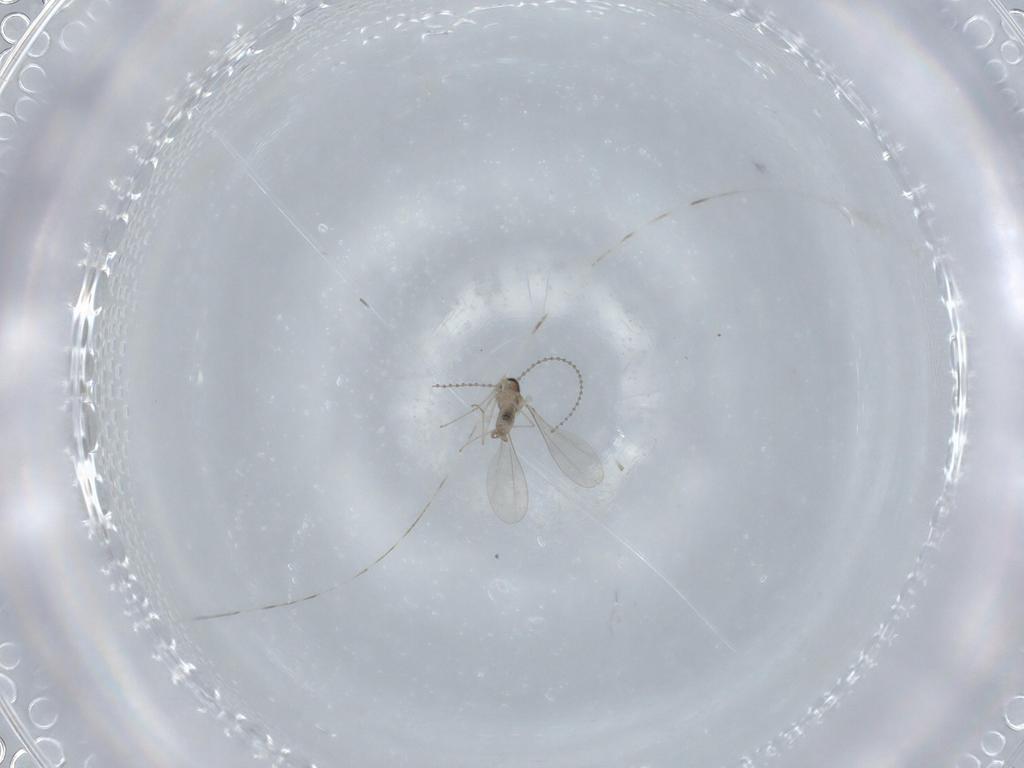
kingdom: Animalia
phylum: Arthropoda
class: Insecta
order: Diptera
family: Cecidomyiidae
